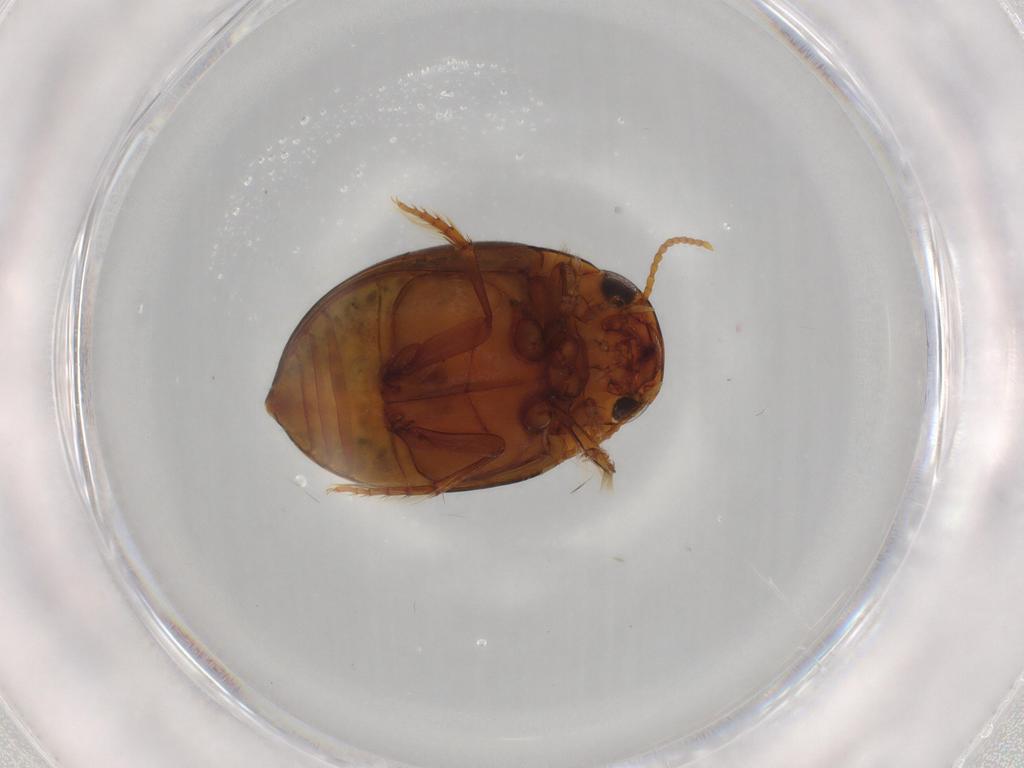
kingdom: Animalia
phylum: Arthropoda
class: Insecta
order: Coleoptera
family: Dytiscidae
